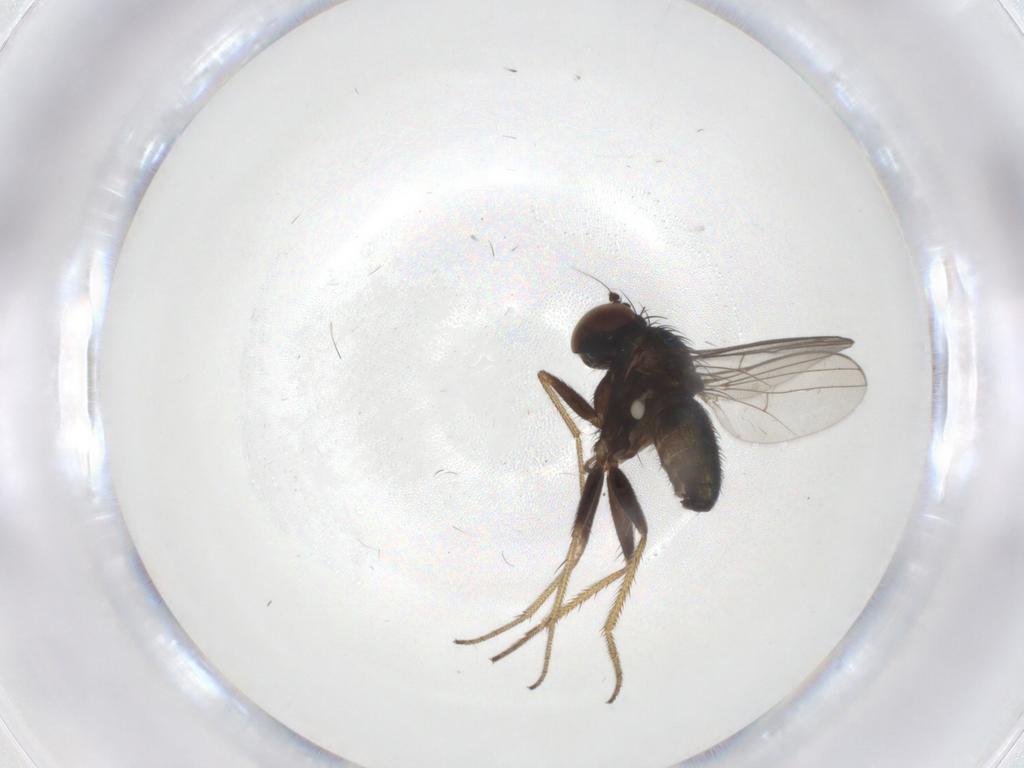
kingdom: Animalia
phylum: Arthropoda
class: Insecta
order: Diptera
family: Dolichopodidae
